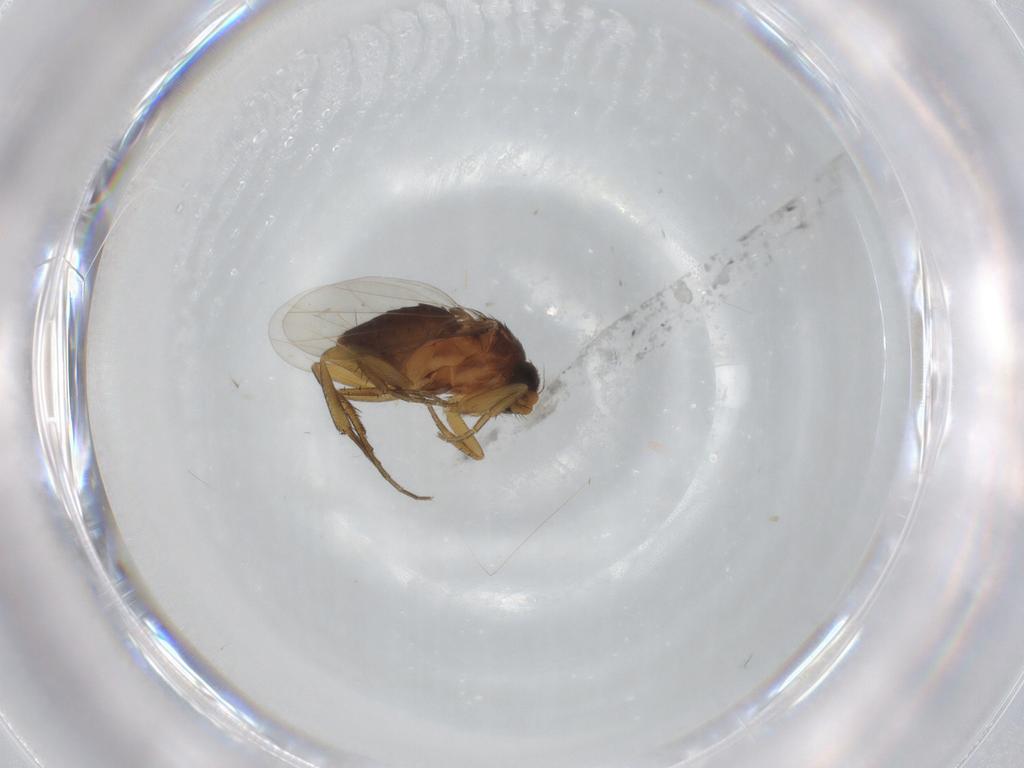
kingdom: Animalia
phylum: Arthropoda
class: Insecta
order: Diptera
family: Phoridae
